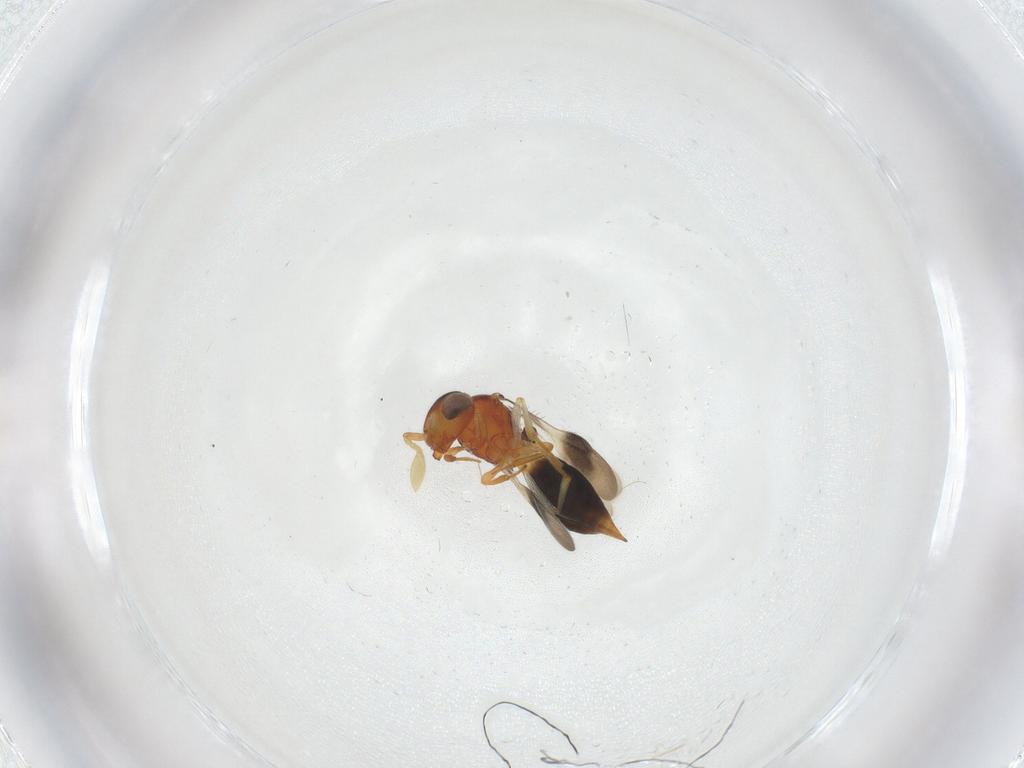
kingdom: Animalia
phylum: Arthropoda
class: Insecta
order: Hymenoptera
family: Scelionidae
